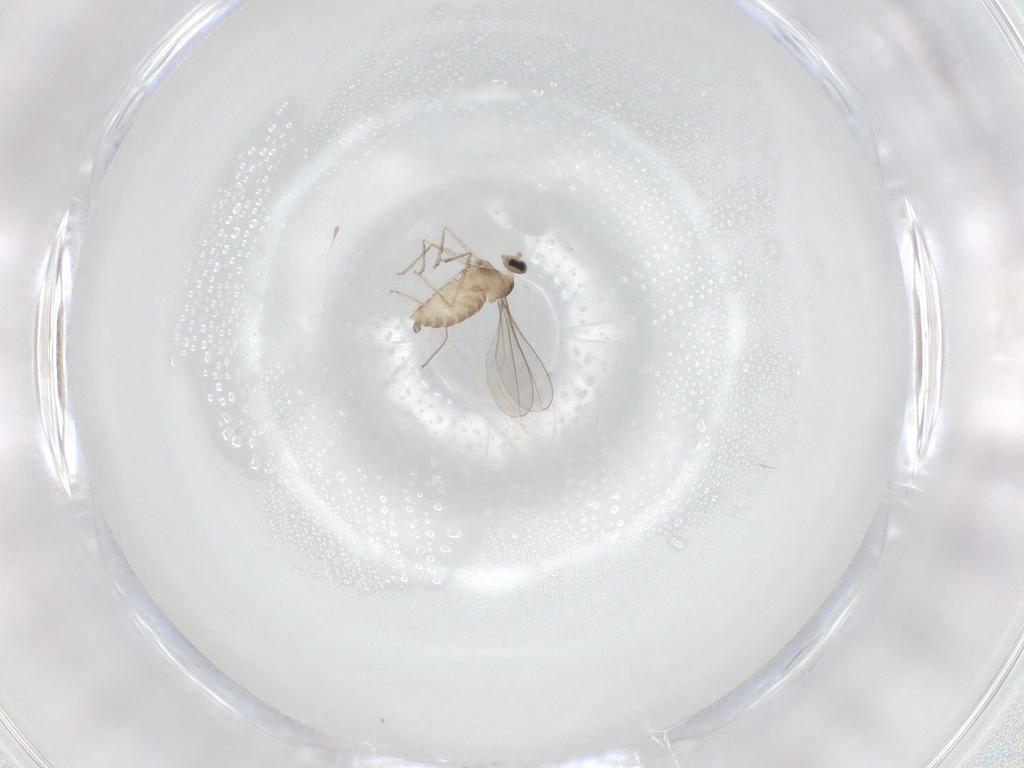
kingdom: Animalia
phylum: Arthropoda
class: Insecta
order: Diptera
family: Cecidomyiidae
